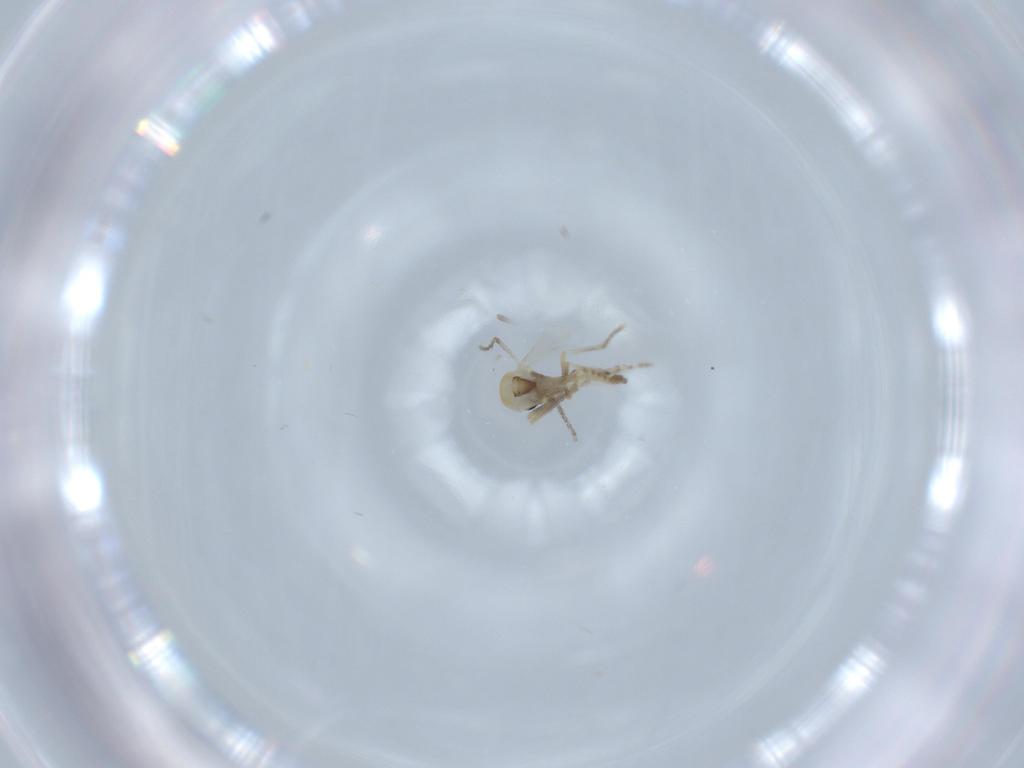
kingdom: Animalia
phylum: Arthropoda
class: Insecta
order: Diptera
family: Ceratopogonidae
